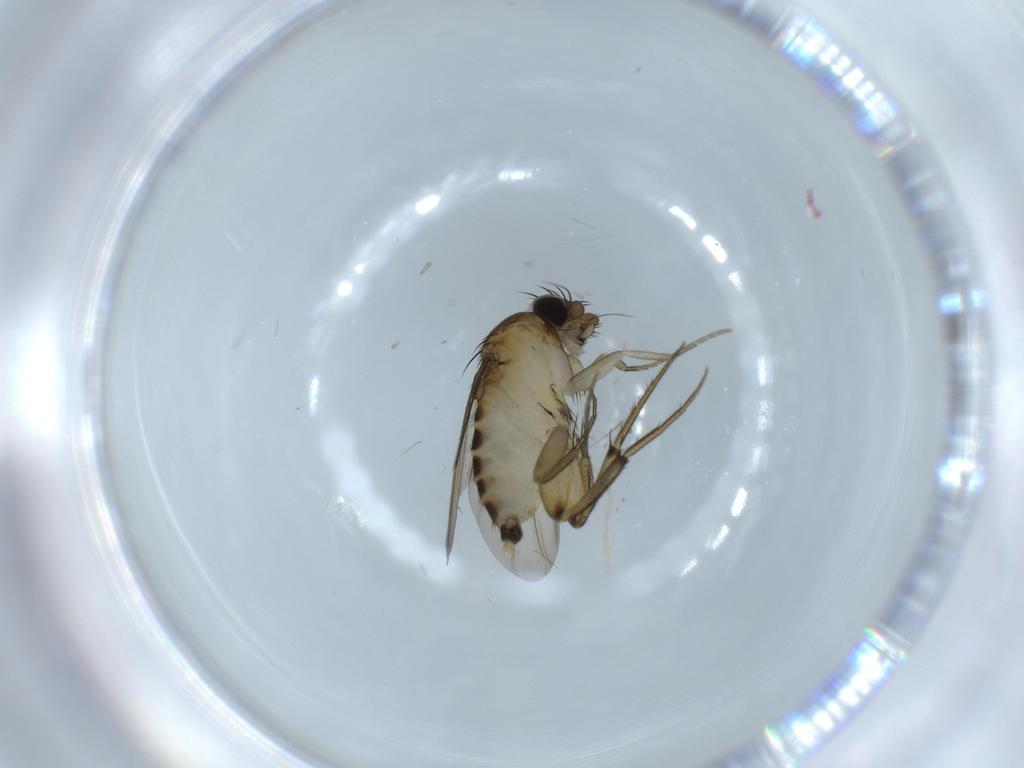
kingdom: Animalia
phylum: Arthropoda
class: Insecta
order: Diptera
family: Phoridae
